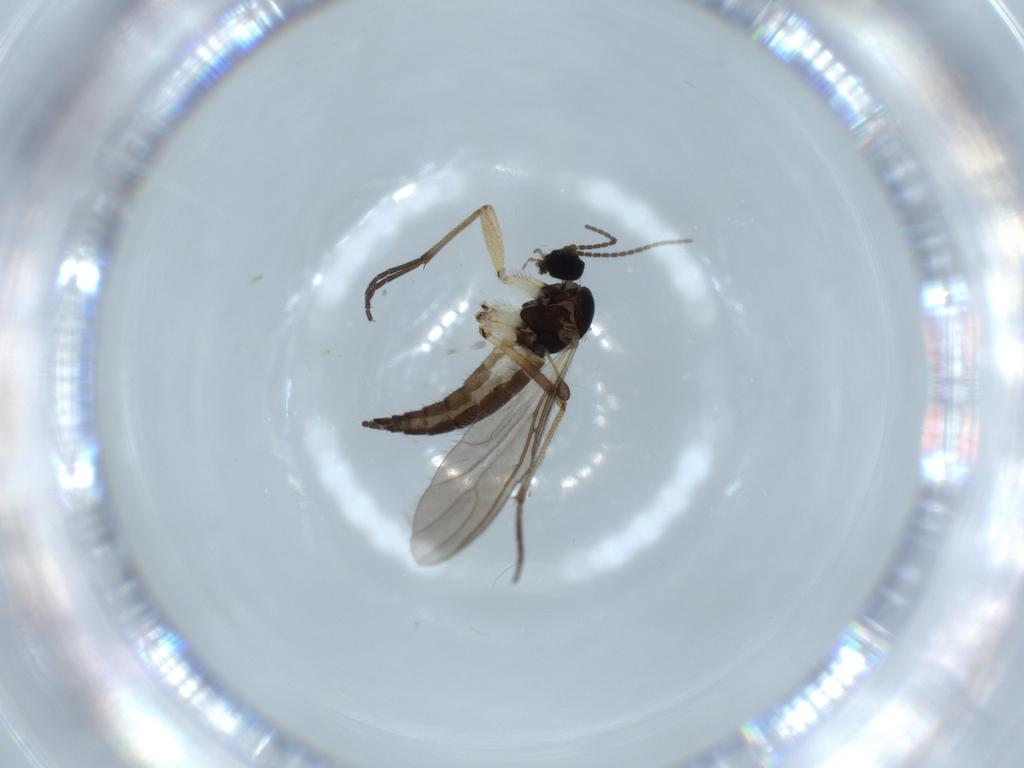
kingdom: Animalia
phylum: Arthropoda
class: Insecta
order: Diptera
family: Sciaridae
